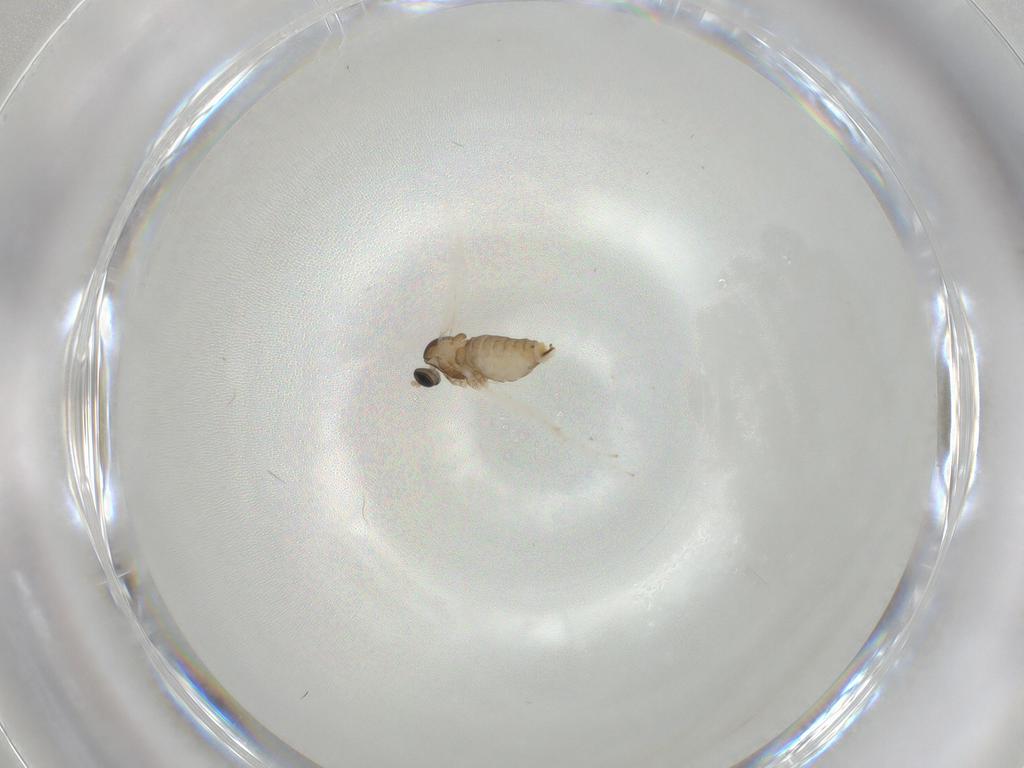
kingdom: Animalia
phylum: Arthropoda
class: Insecta
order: Diptera
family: Cecidomyiidae
